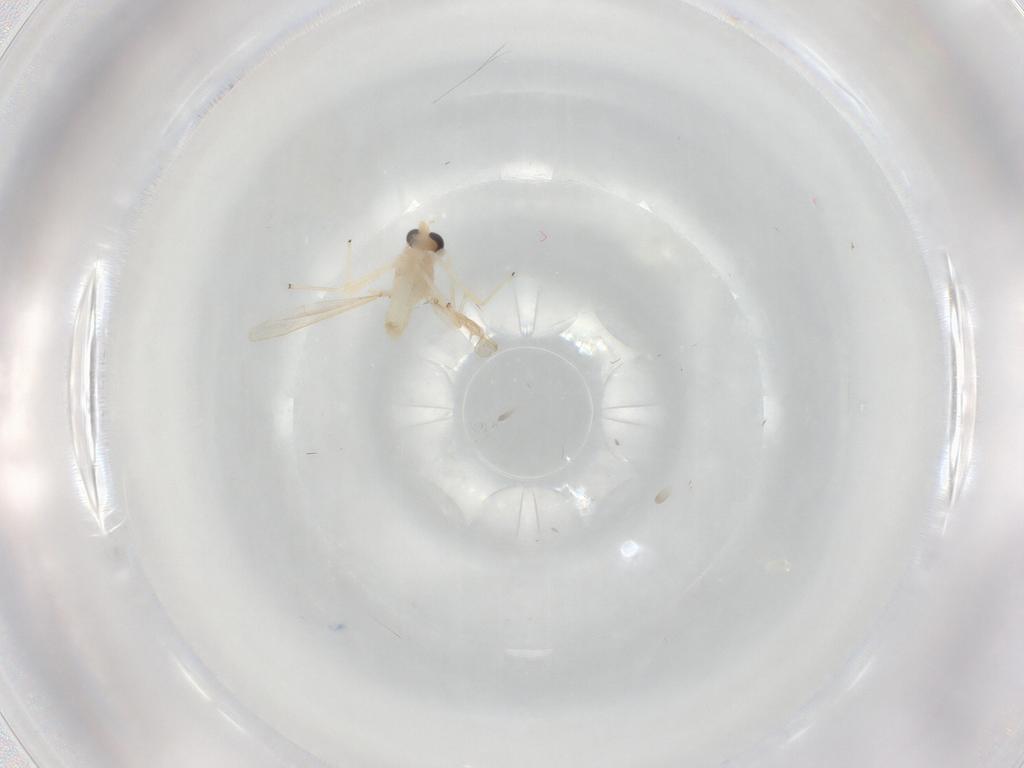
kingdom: Animalia
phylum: Arthropoda
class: Insecta
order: Diptera
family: Chironomidae
